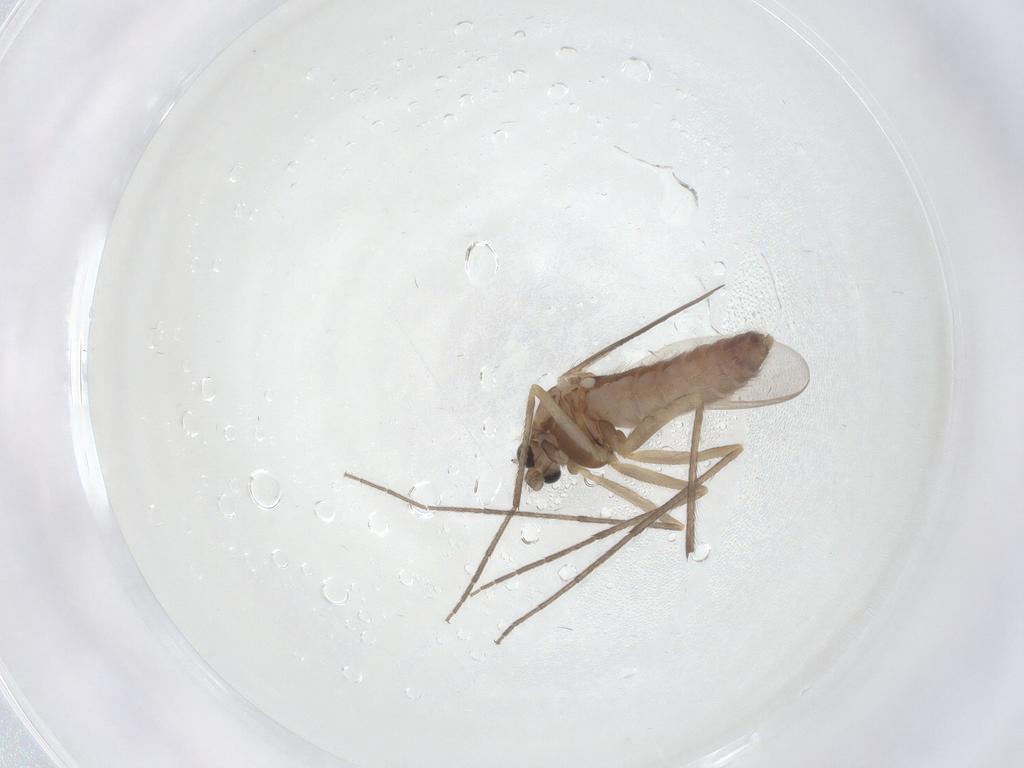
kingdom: Animalia
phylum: Arthropoda
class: Insecta
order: Diptera
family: Chironomidae
